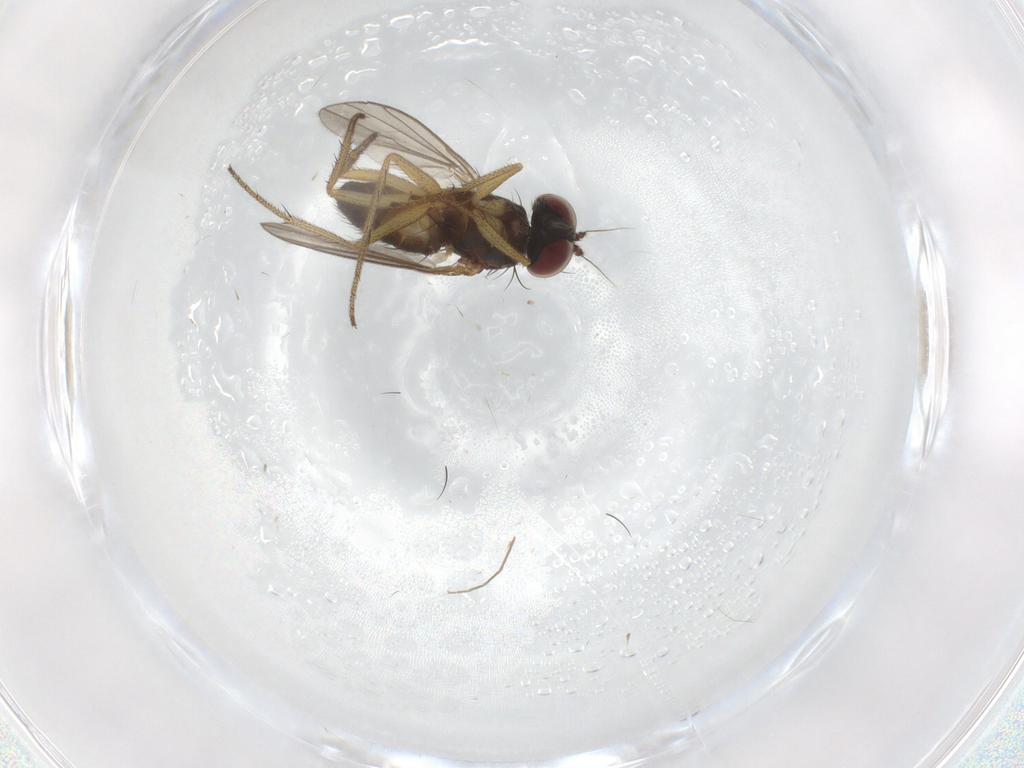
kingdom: Animalia
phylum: Arthropoda
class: Insecta
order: Diptera
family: Dolichopodidae
